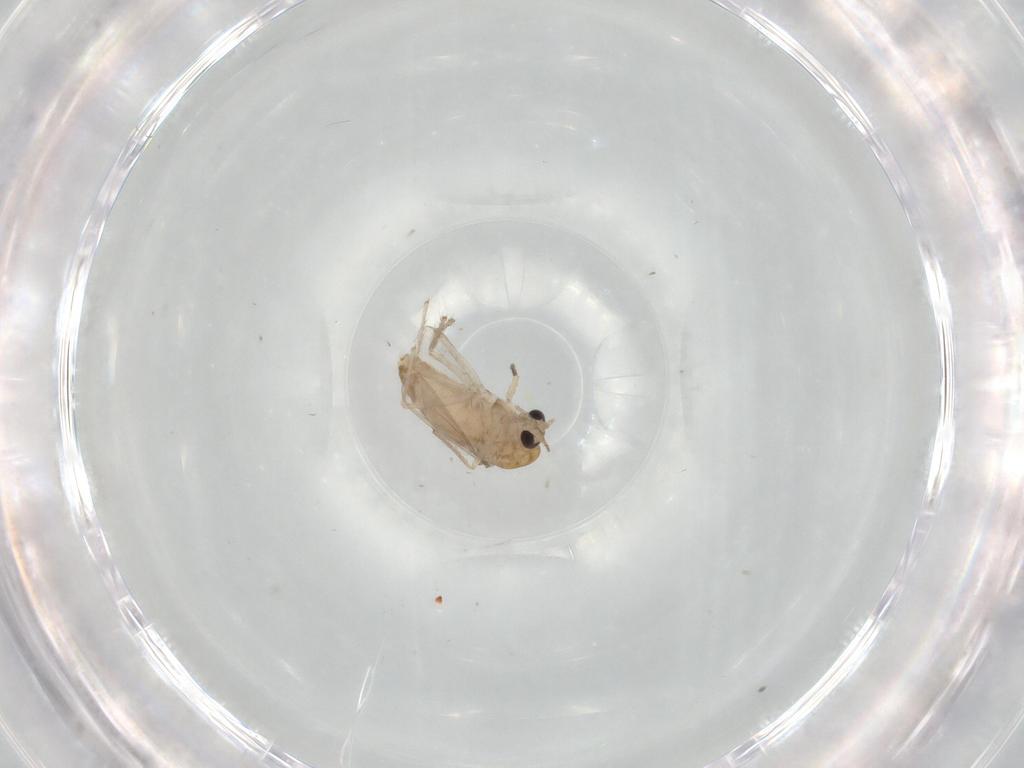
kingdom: Animalia
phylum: Arthropoda
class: Insecta
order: Diptera
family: Chironomidae
